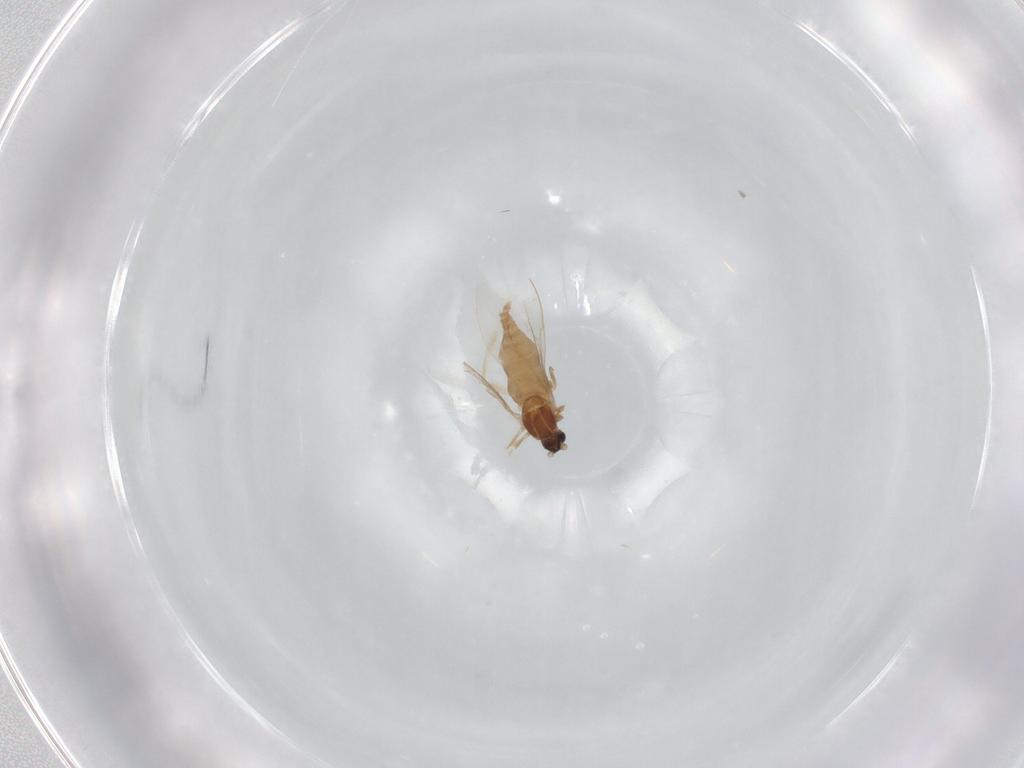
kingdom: Animalia
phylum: Arthropoda
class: Insecta
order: Diptera
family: Cecidomyiidae
